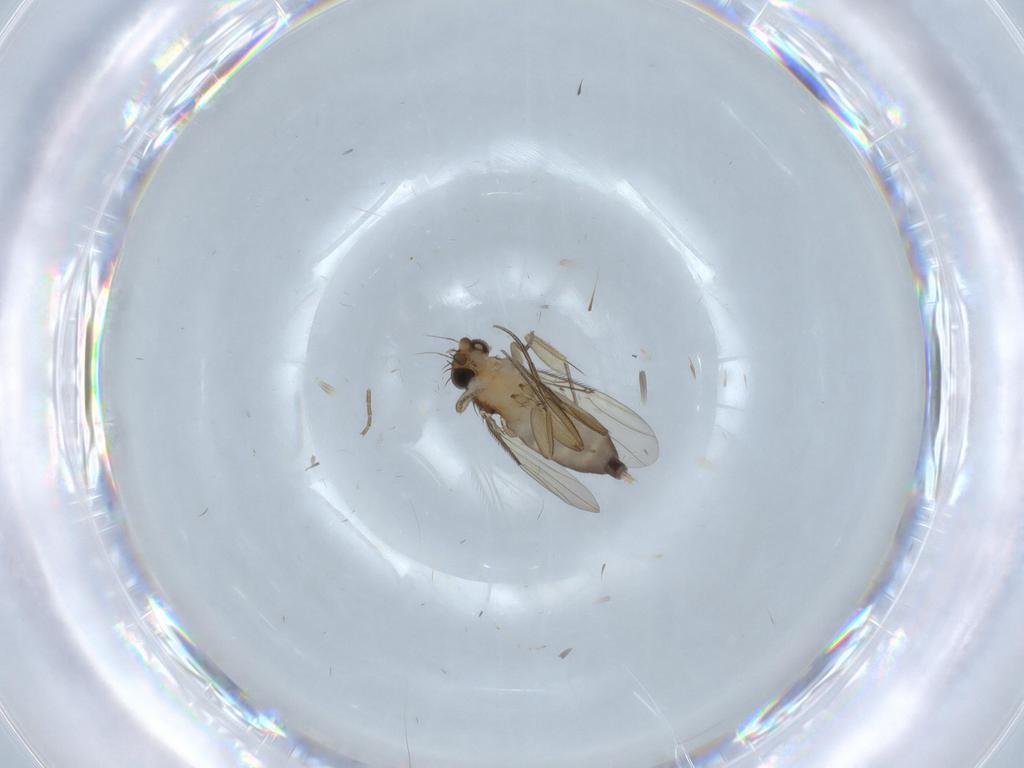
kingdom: Animalia
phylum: Arthropoda
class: Insecta
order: Diptera
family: Phoridae
